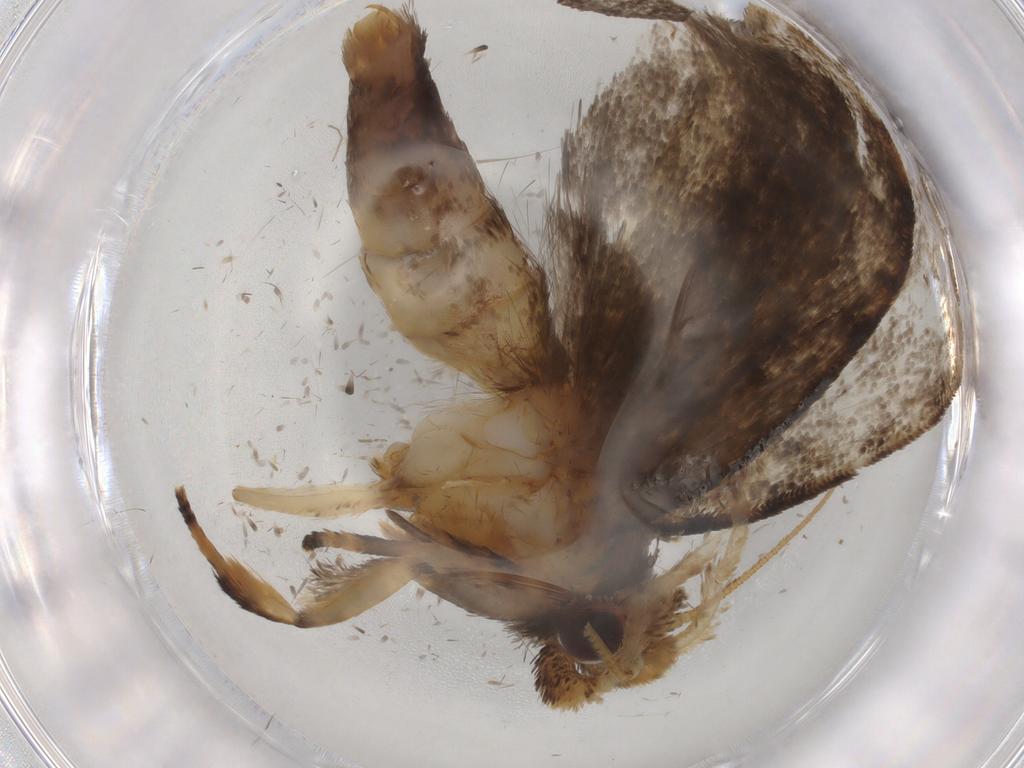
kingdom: Animalia
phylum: Arthropoda
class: Insecta
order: Lepidoptera
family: Tineidae
